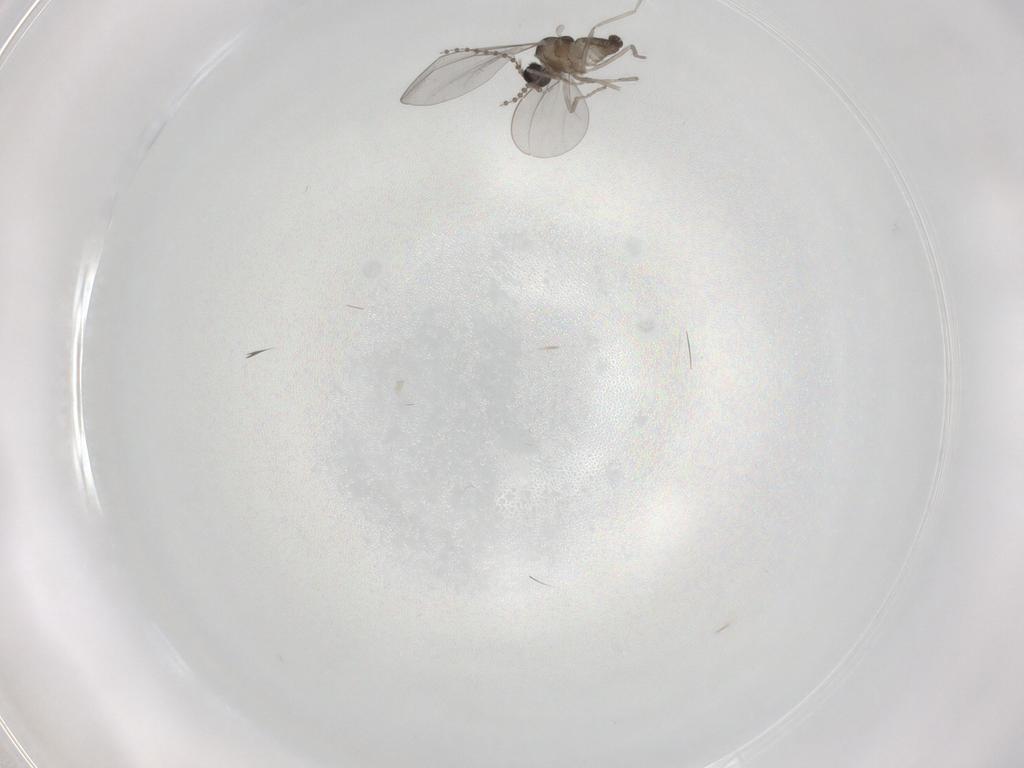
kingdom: Animalia
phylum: Arthropoda
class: Insecta
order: Diptera
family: Cecidomyiidae
